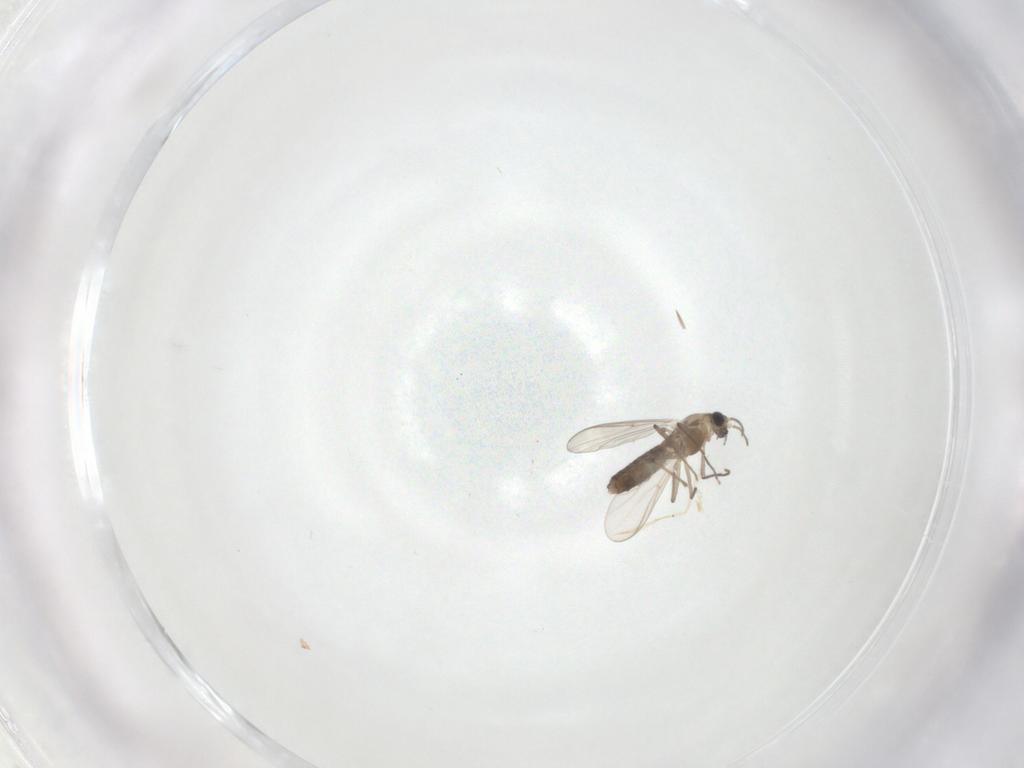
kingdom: Animalia
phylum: Arthropoda
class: Insecta
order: Diptera
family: Chironomidae
